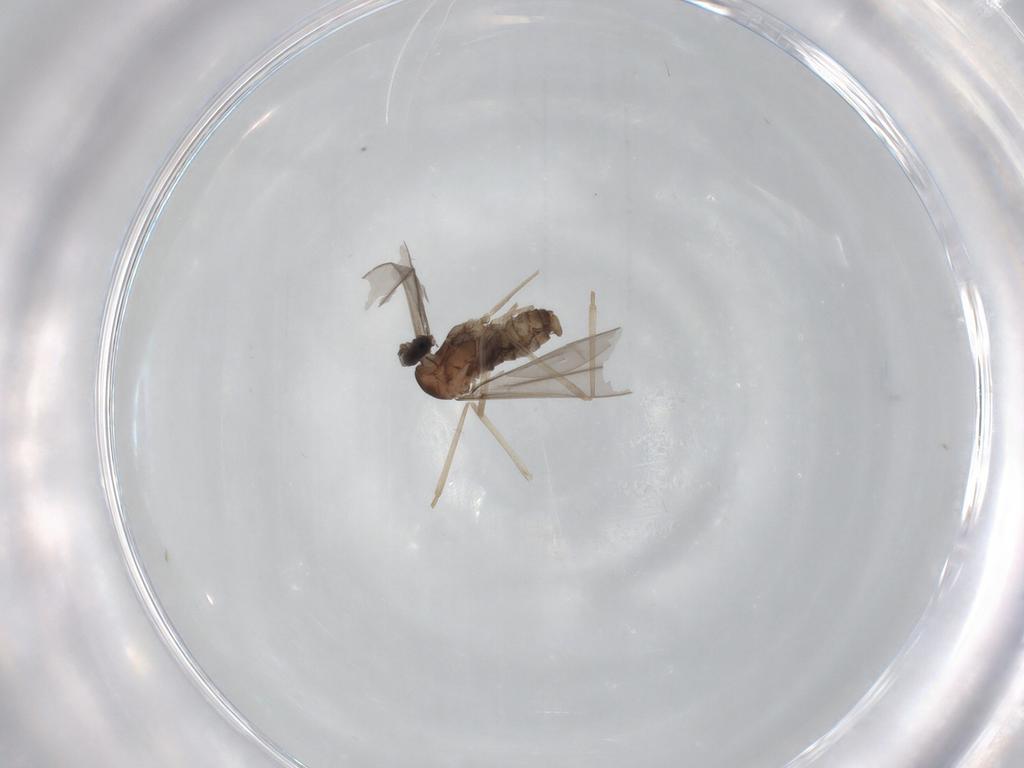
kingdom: Animalia
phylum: Arthropoda
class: Insecta
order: Diptera
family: Cecidomyiidae
